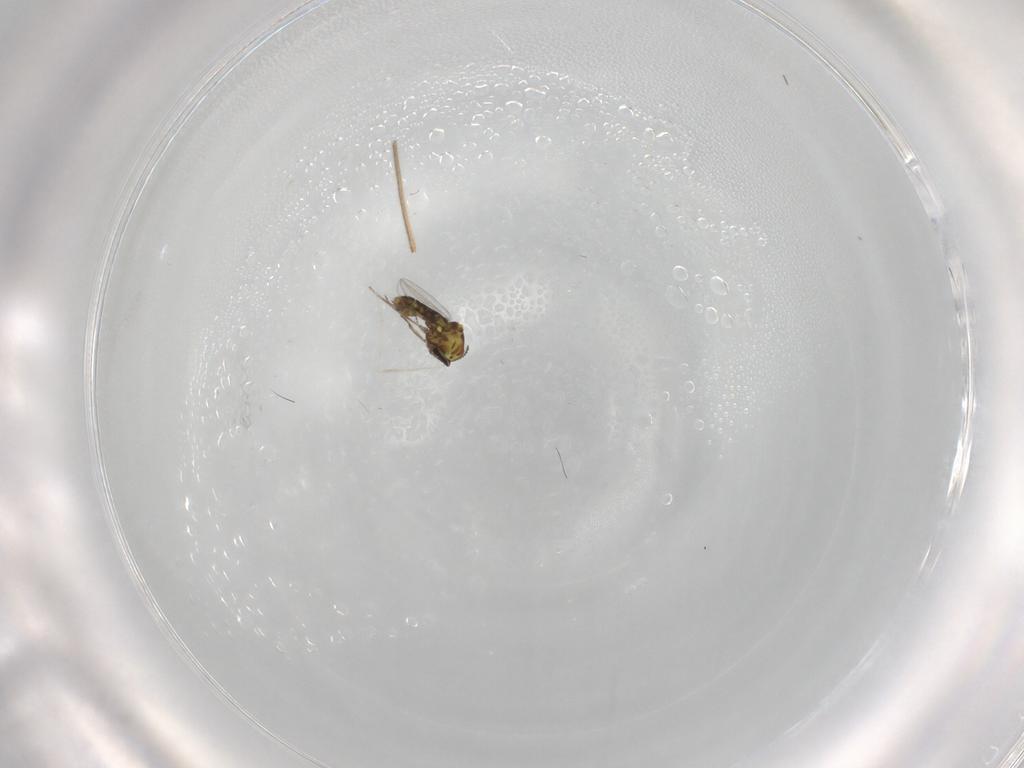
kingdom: Animalia
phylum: Arthropoda
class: Insecta
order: Diptera
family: Ceratopogonidae
